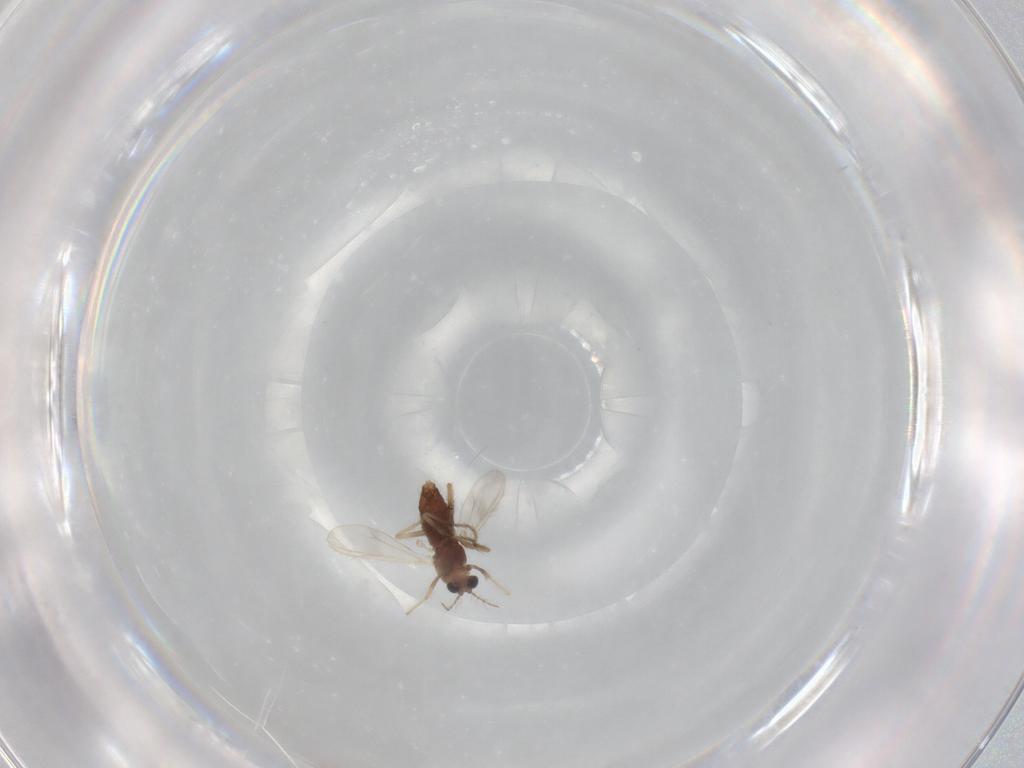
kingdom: Animalia
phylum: Arthropoda
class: Insecta
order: Diptera
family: Chironomidae
